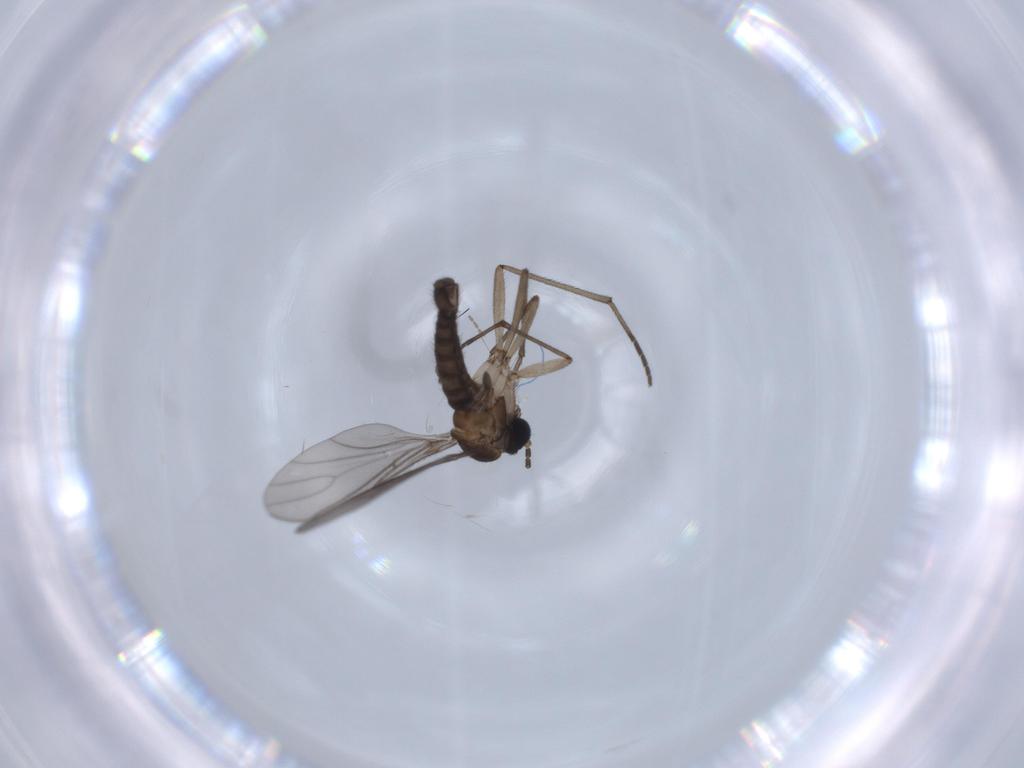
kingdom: Animalia
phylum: Arthropoda
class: Insecta
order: Diptera
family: Sciaridae
